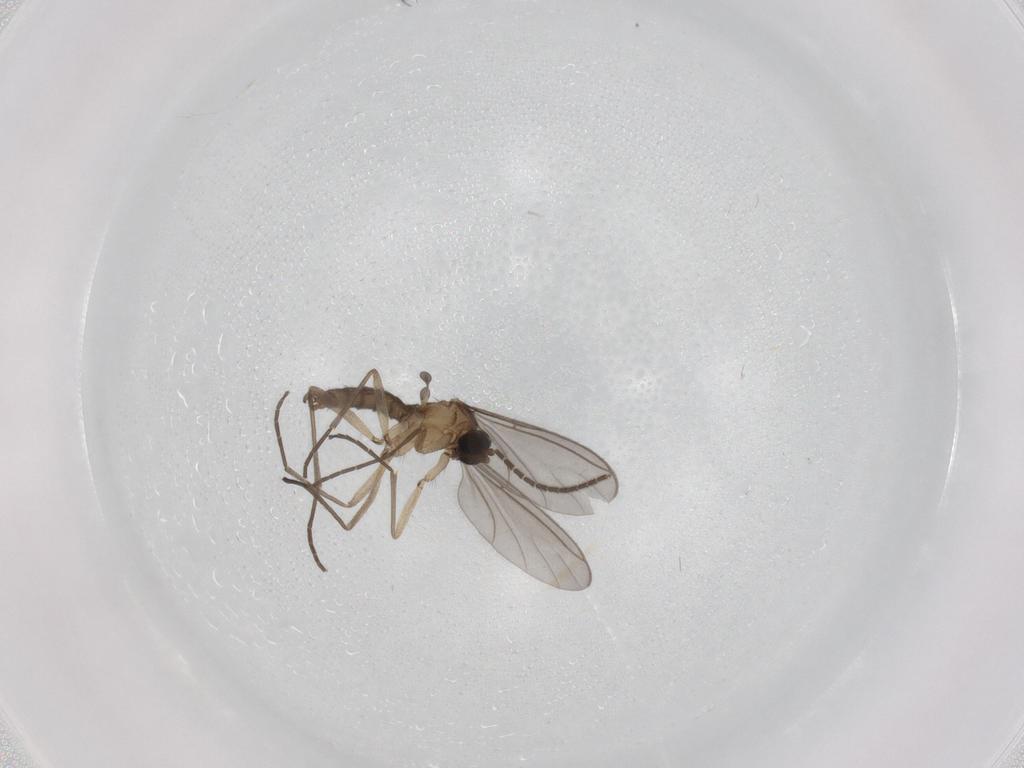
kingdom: Animalia
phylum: Arthropoda
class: Insecta
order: Diptera
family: Sciaridae
